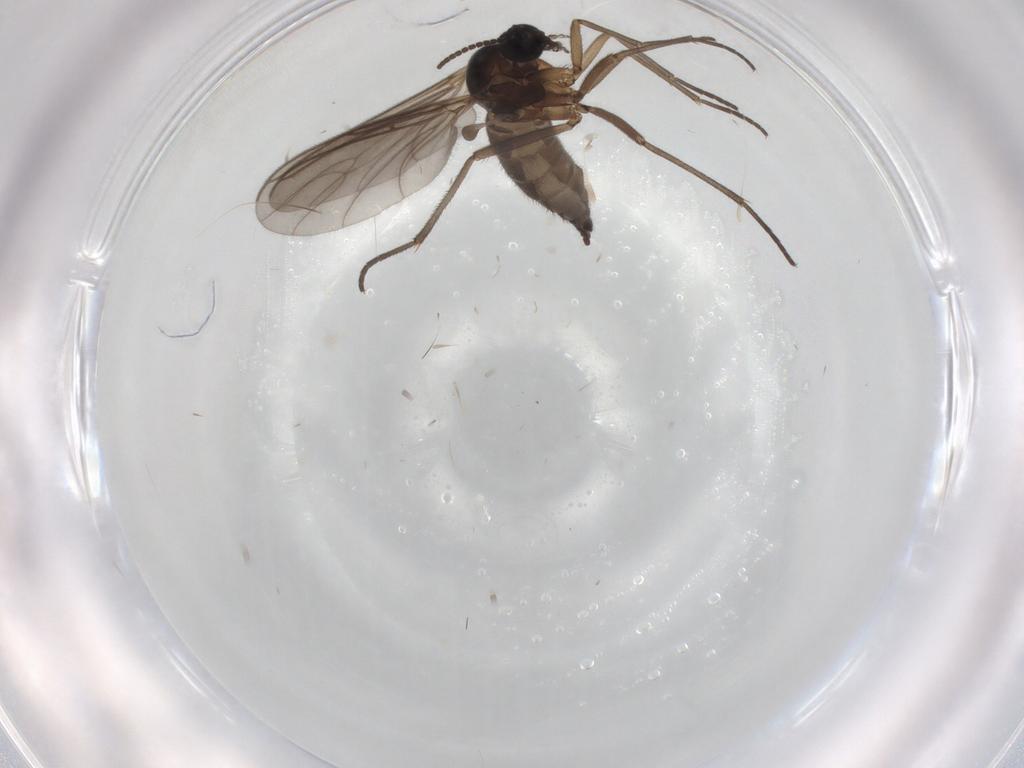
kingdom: Animalia
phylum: Arthropoda
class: Insecta
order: Diptera
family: Sciaridae
